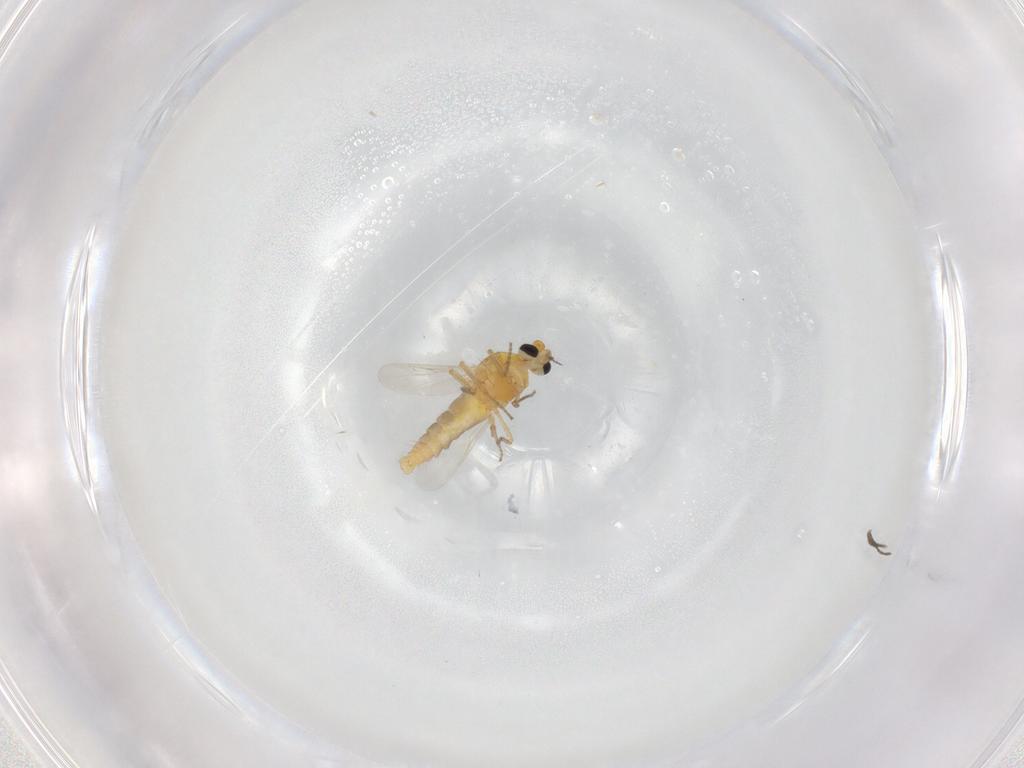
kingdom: Animalia
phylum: Arthropoda
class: Insecta
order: Diptera
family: Ceratopogonidae
